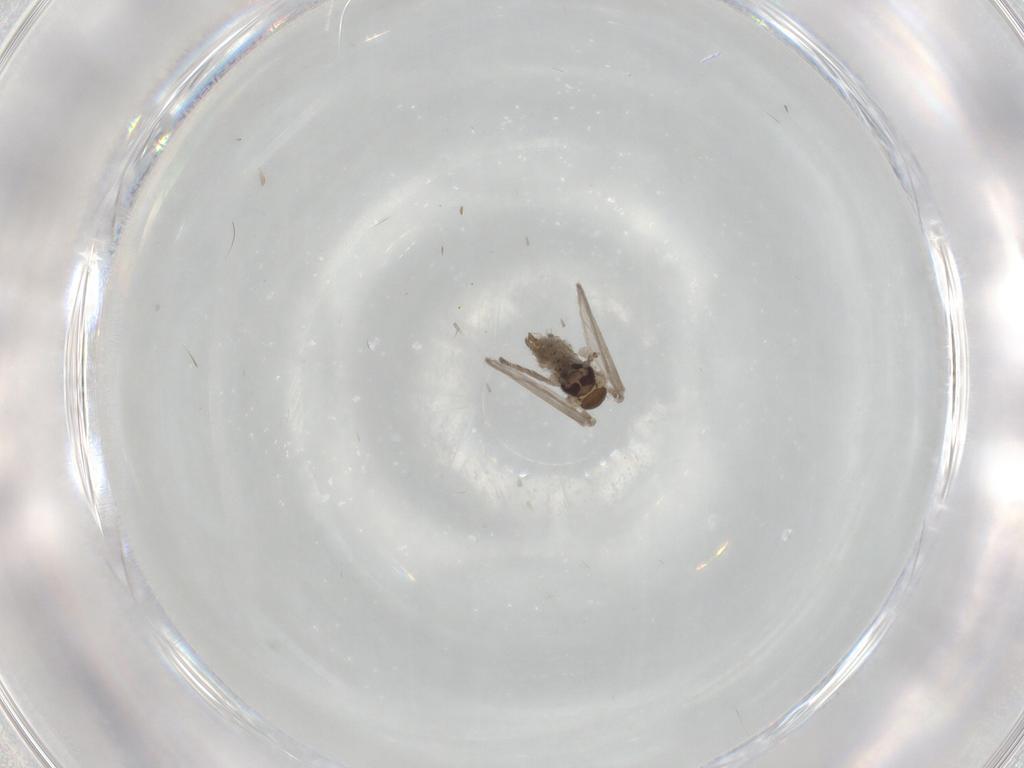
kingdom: Animalia
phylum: Arthropoda
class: Insecta
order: Diptera
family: Psychodidae
